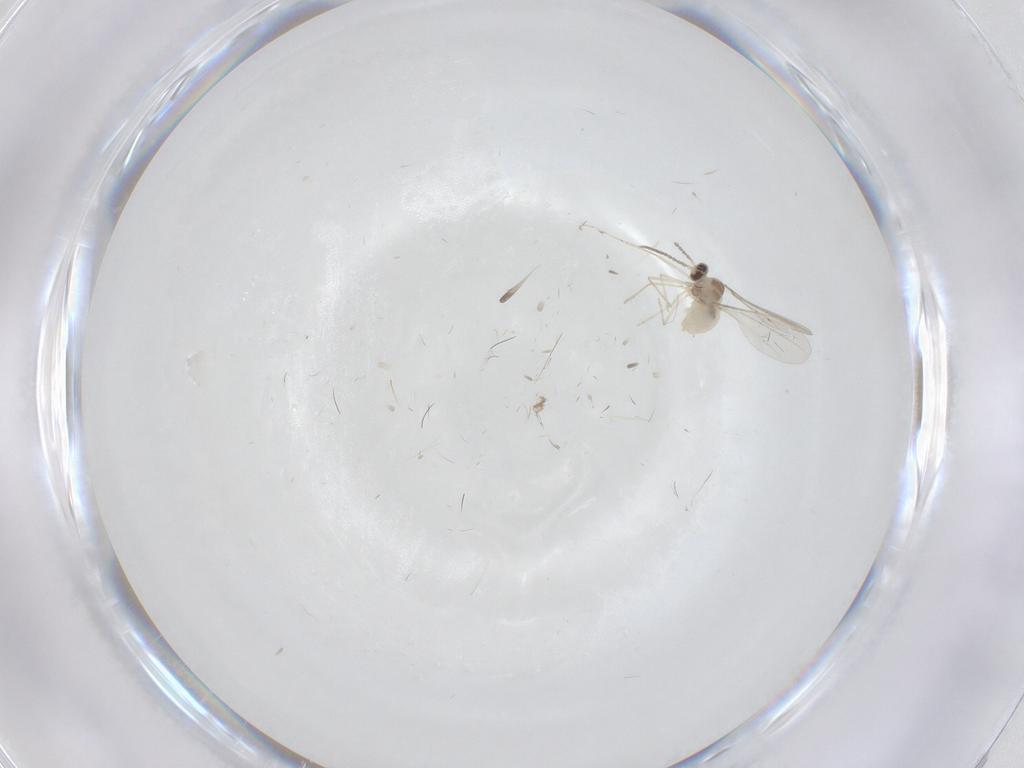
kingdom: Animalia
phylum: Arthropoda
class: Insecta
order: Diptera
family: Cecidomyiidae
